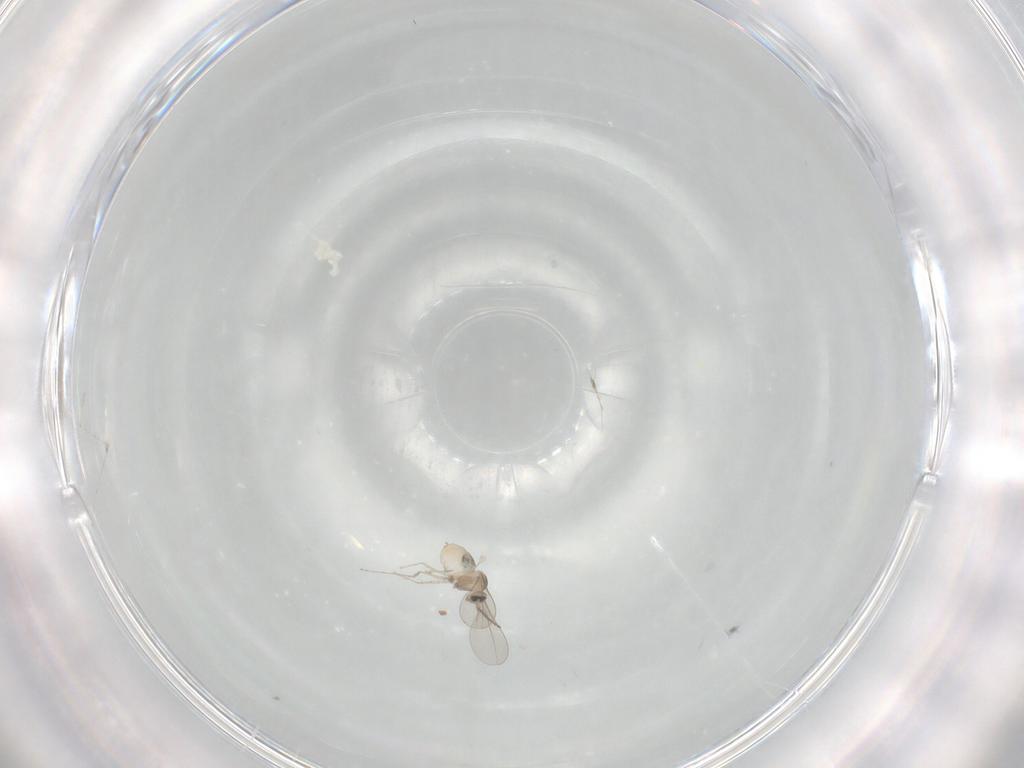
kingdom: Animalia
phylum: Arthropoda
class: Insecta
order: Diptera
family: Cecidomyiidae
